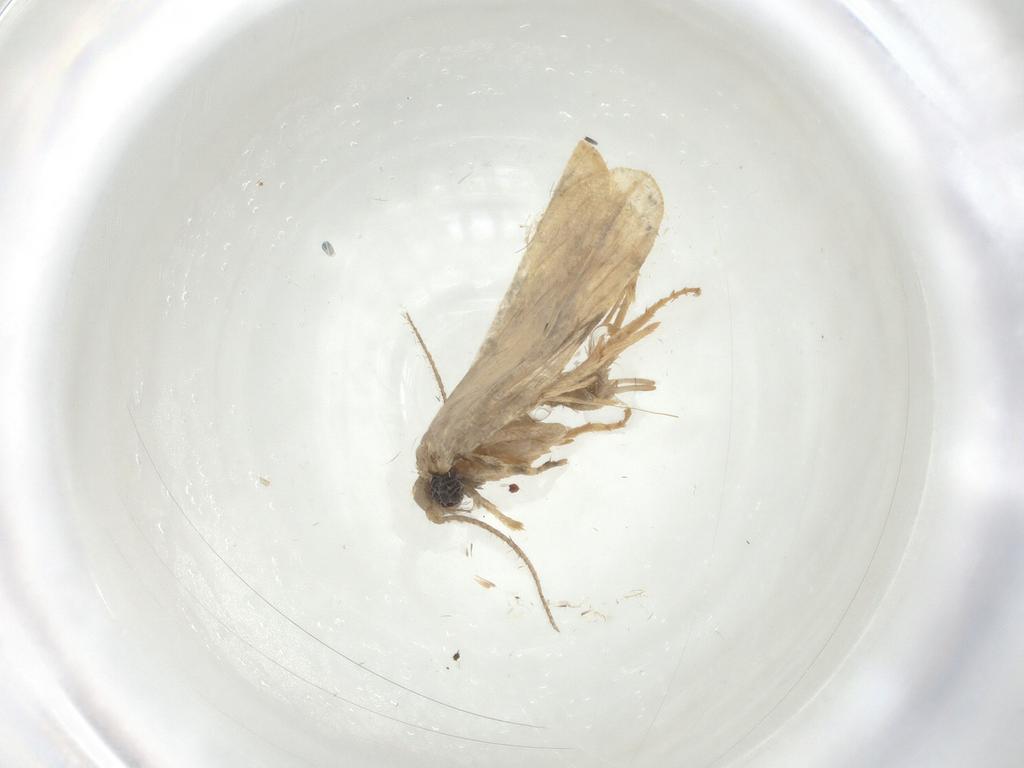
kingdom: Animalia
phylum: Arthropoda
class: Insecta
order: Lepidoptera
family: Psychidae
